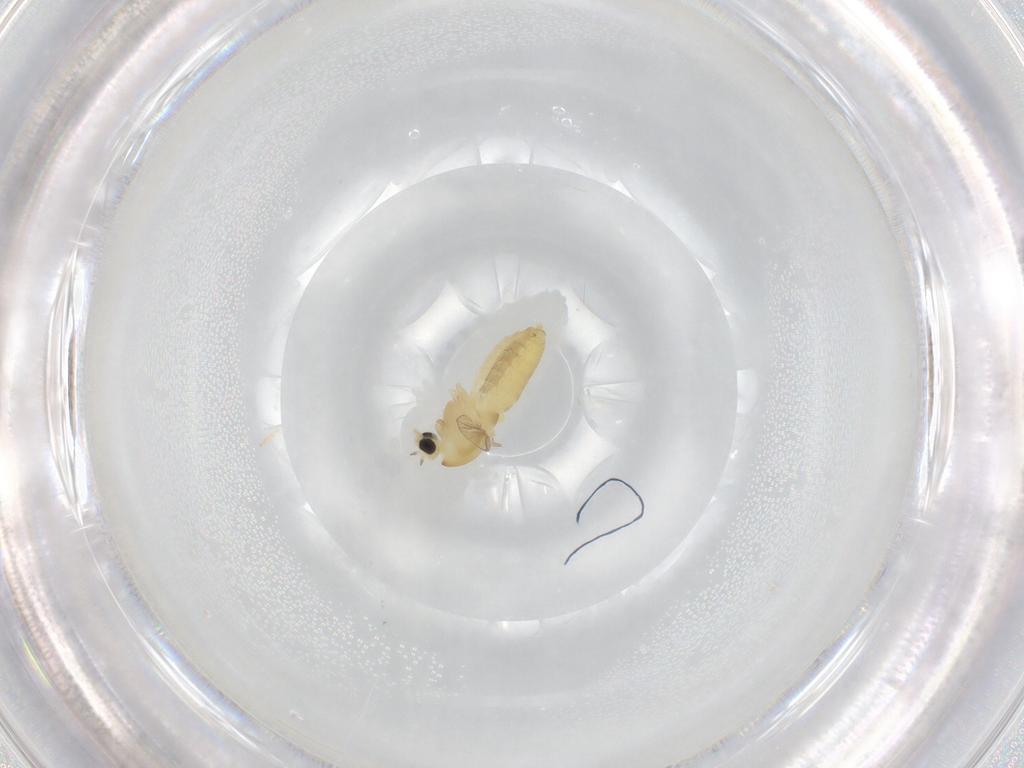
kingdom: Animalia
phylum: Arthropoda
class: Insecta
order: Diptera
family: Chironomidae
